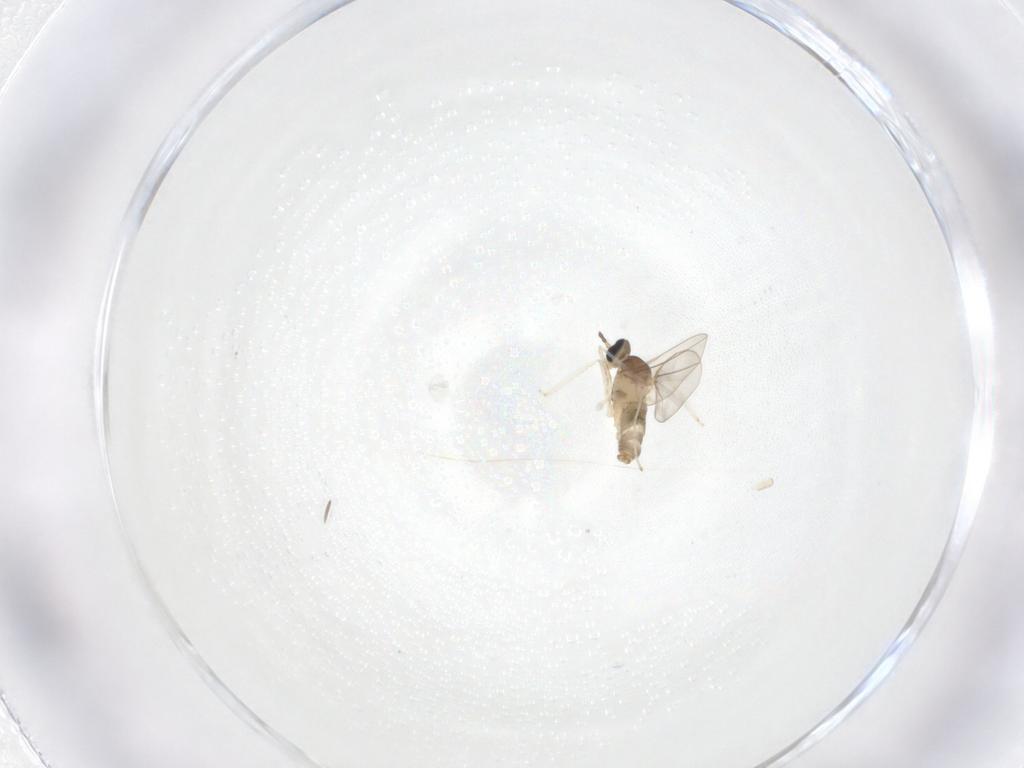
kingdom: Animalia
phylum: Arthropoda
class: Insecta
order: Diptera
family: Cecidomyiidae
